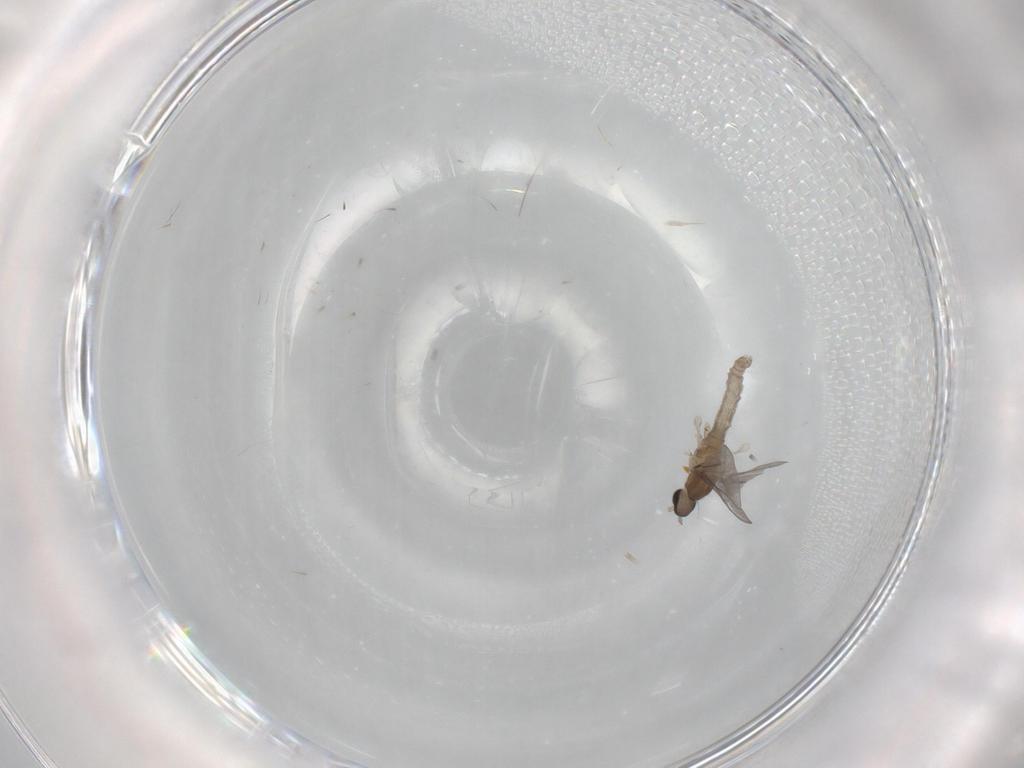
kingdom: Animalia
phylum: Arthropoda
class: Insecta
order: Diptera
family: Cecidomyiidae
